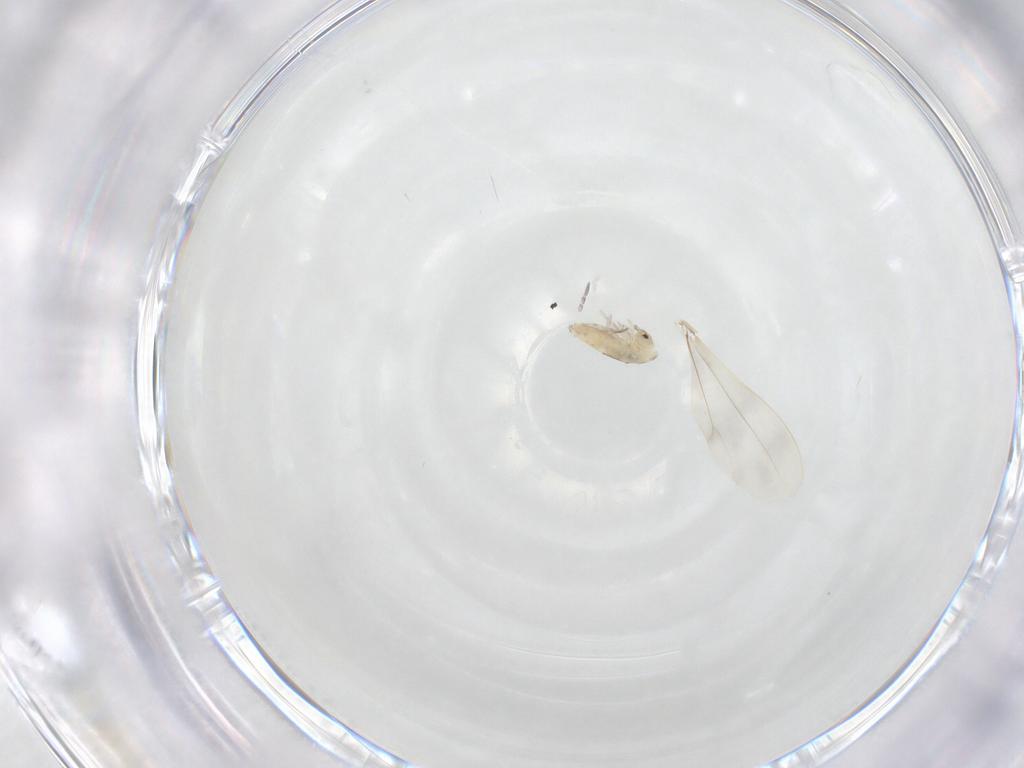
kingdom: Animalia
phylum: Arthropoda
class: Collembola
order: Entomobryomorpha
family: Entomobryidae
